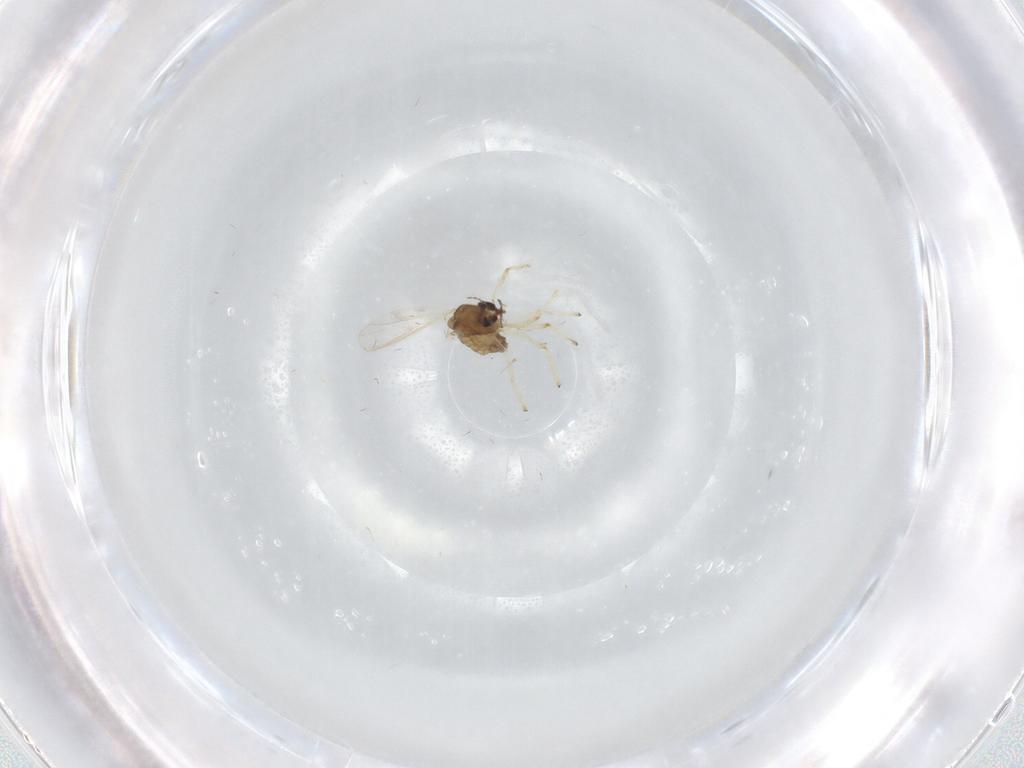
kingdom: Animalia
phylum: Arthropoda
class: Insecta
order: Diptera
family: Chironomidae
